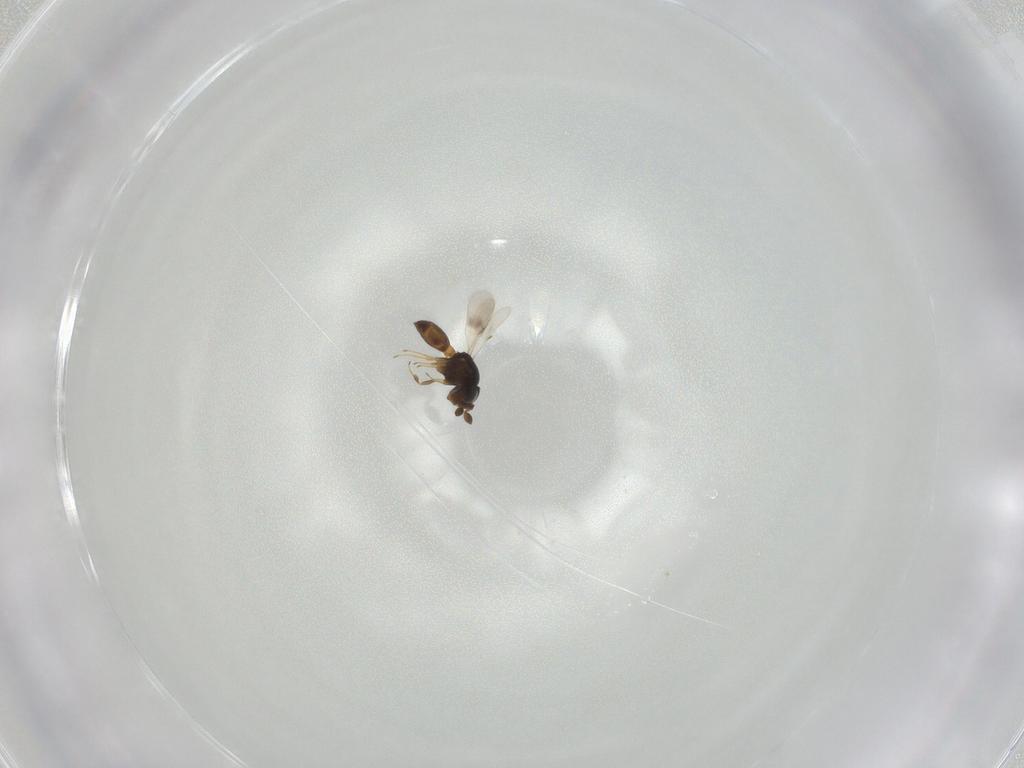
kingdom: Animalia
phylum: Arthropoda
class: Insecta
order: Hymenoptera
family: Scelionidae
